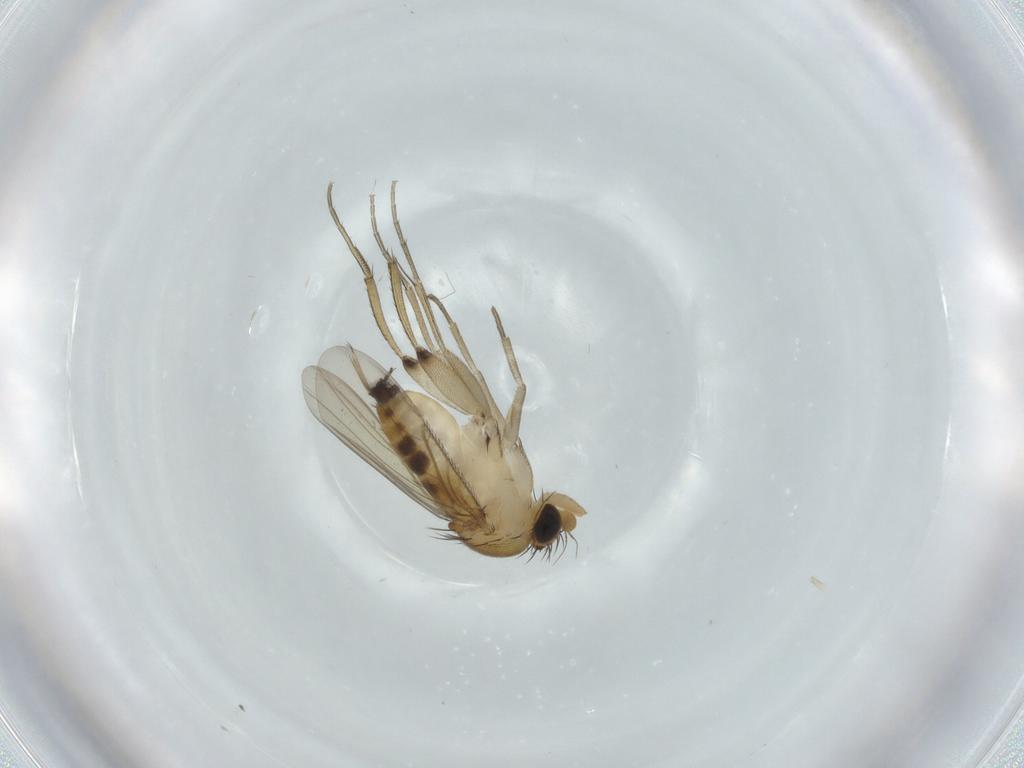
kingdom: Animalia
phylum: Arthropoda
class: Insecta
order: Diptera
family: Phoridae
